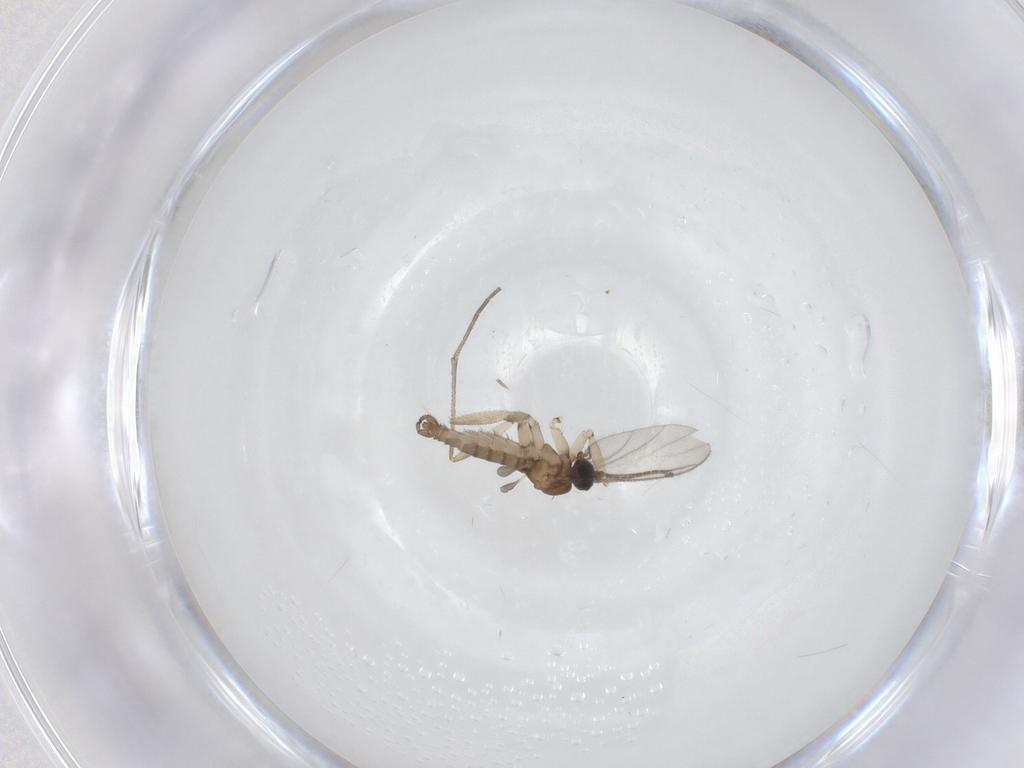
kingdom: Animalia
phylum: Arthropoda
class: Insecta
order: Diptera
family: Sciaridae
